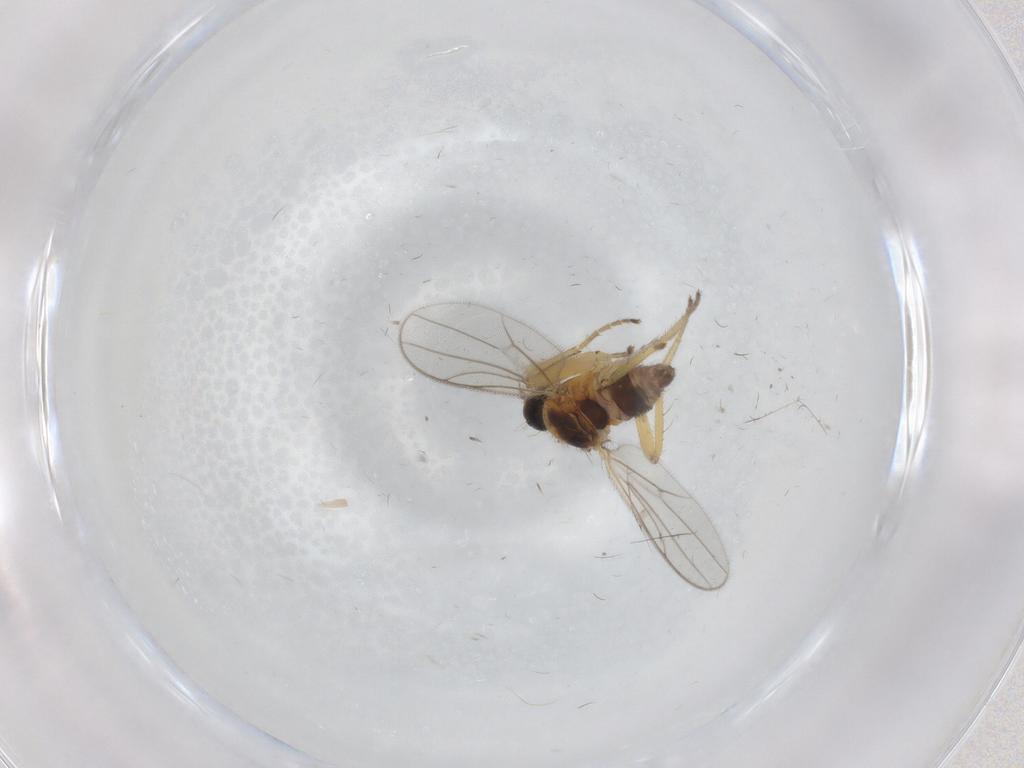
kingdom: Animalia
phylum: Arthropoda
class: Insecta
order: Diptera
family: Hybotidae
